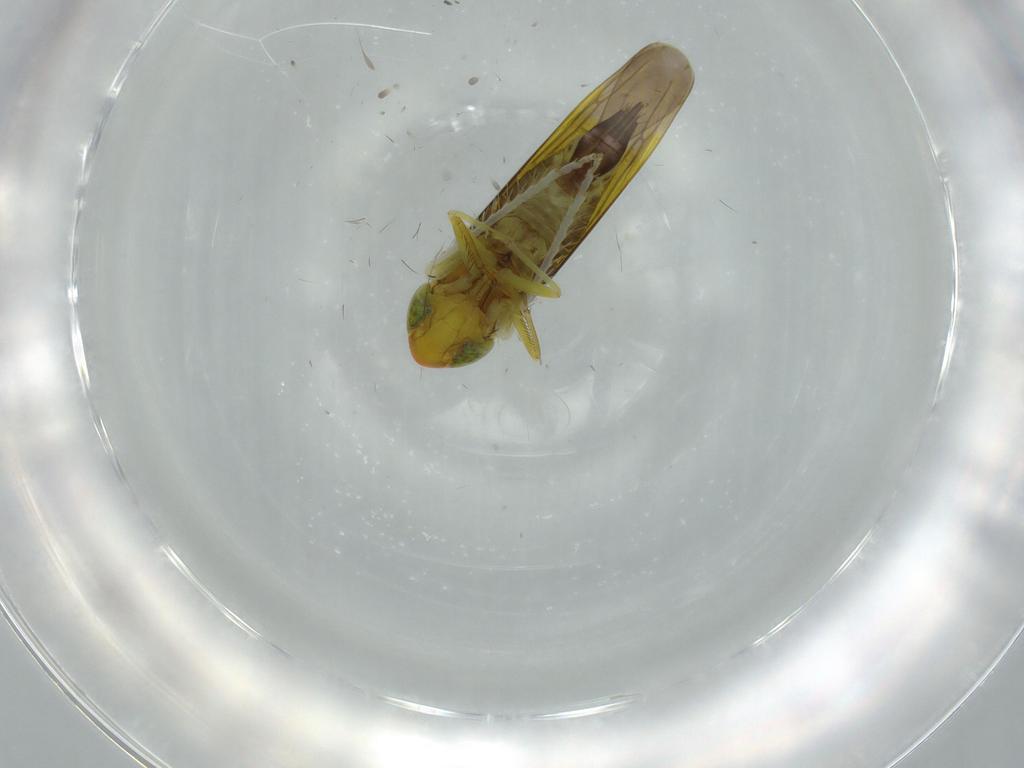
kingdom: Animalia
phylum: Arthropoda
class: Insecta
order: Hemiptera
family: Cicadellidae
